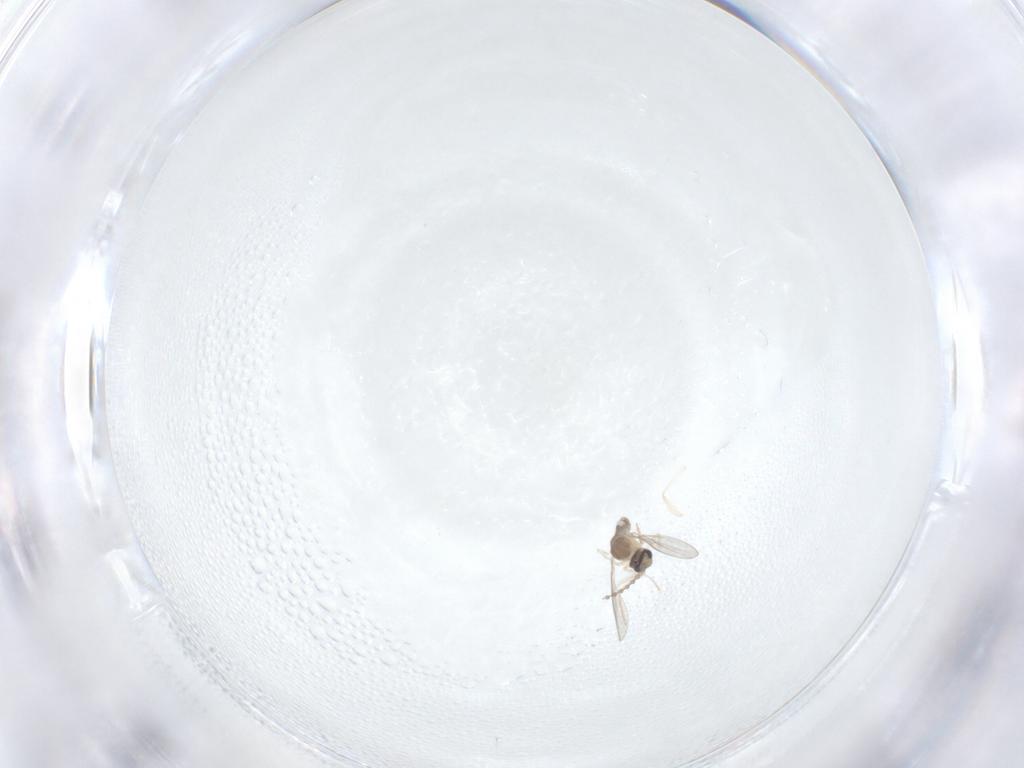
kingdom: Animalia
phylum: Arthropoda
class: Insecta
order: Diptera
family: Cecidomyiidae
